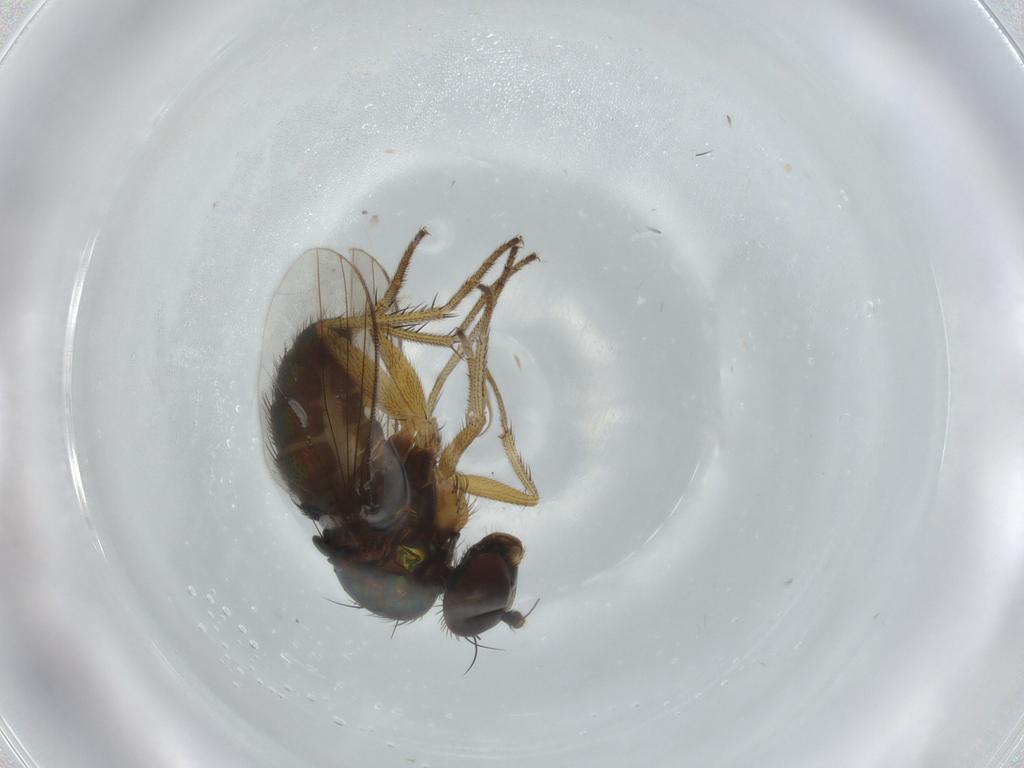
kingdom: Animalia
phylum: Arthropoda
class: Insecta
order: Diptera
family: Dolichopodidae
